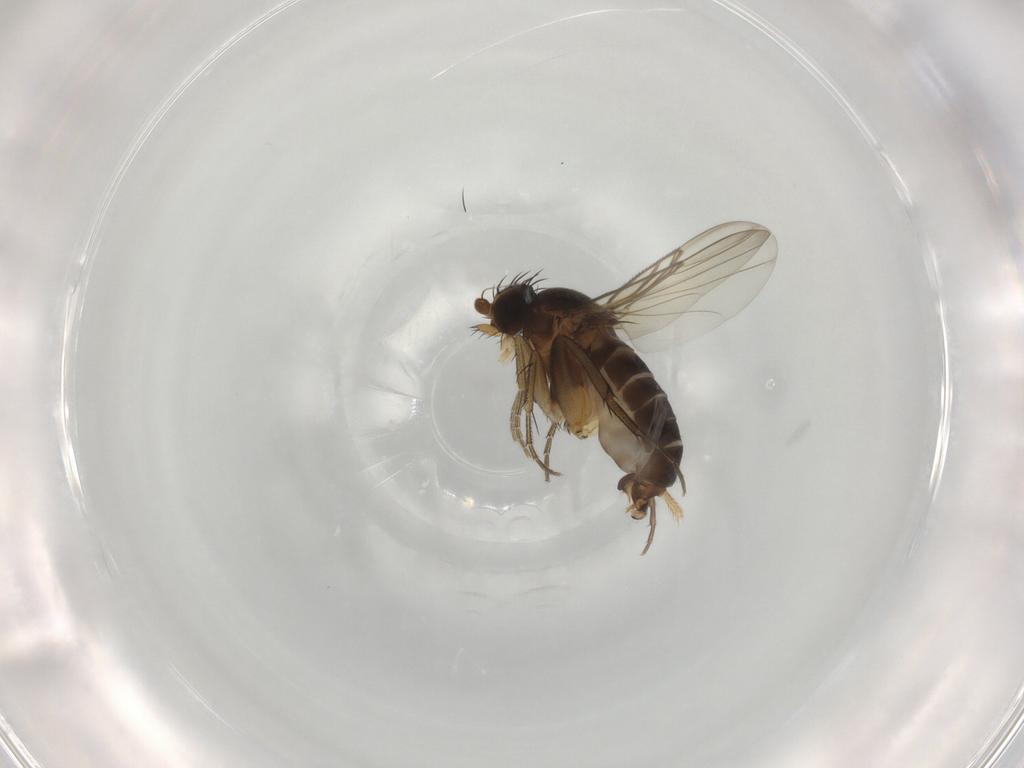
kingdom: Animalia
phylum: Arthropoda
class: Insecta
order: Diptera
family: Phoridae
